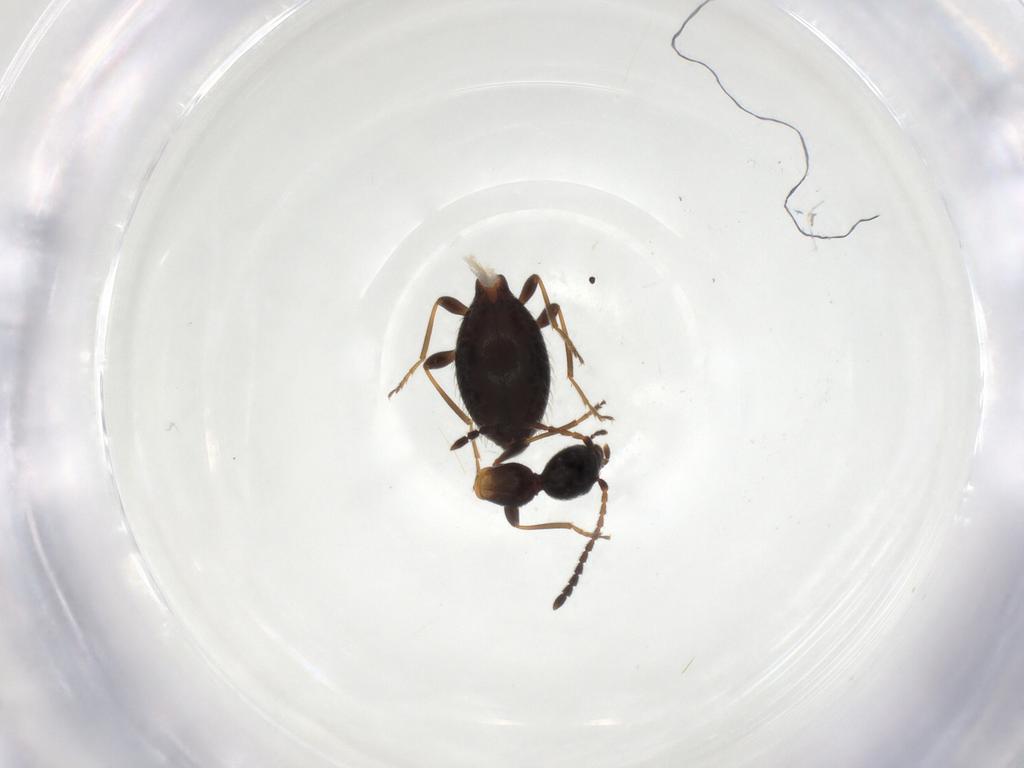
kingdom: Animalia
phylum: Arthropoda
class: Insecta
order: Coleoptera
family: Anthicidae
